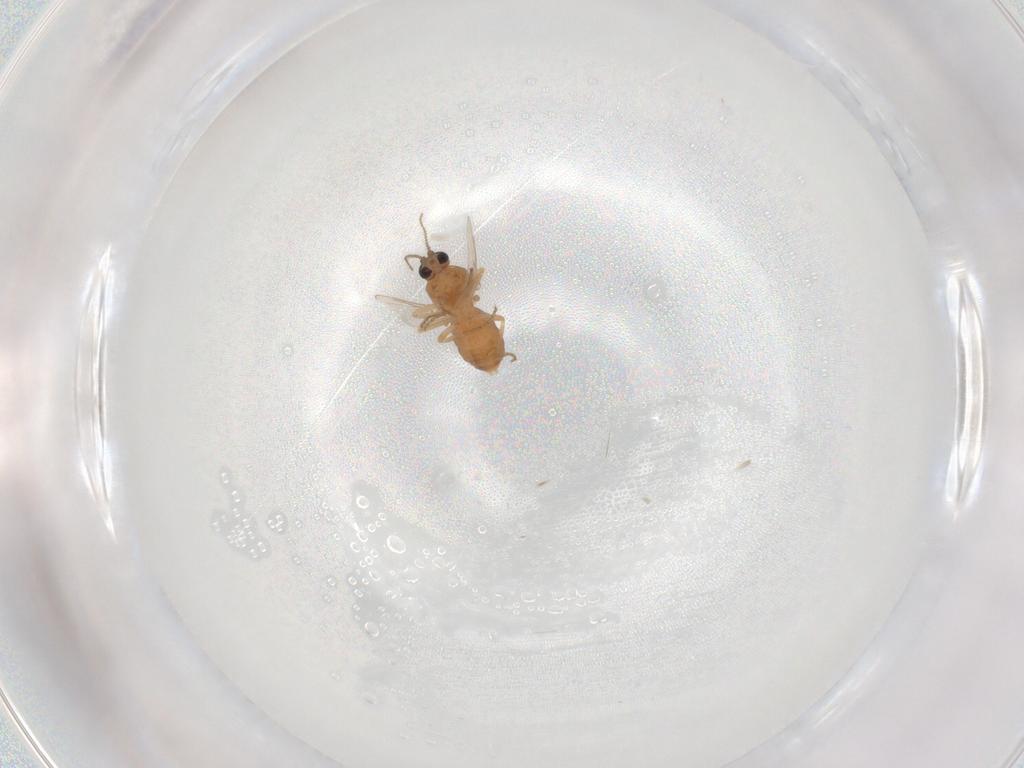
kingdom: Animalia
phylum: Arthropoda
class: Insecta
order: Diptera
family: Ceratopogonidae
